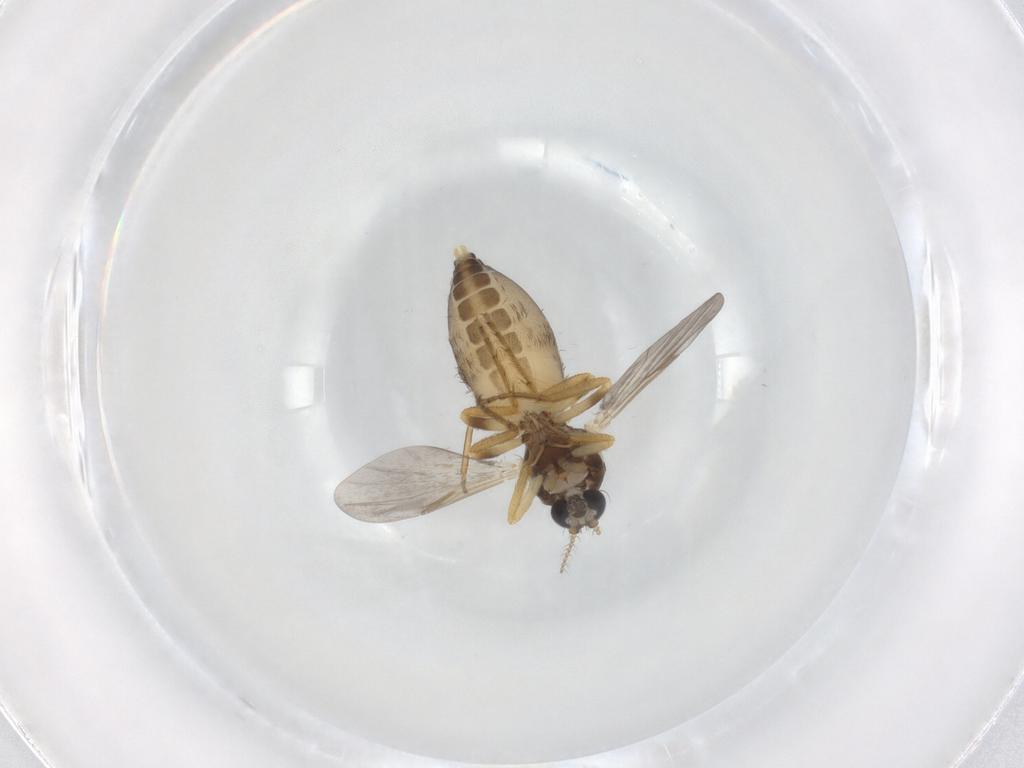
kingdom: Animalia
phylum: Arthropoda
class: Insecta
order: Diptera
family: Ceratopogonidae
